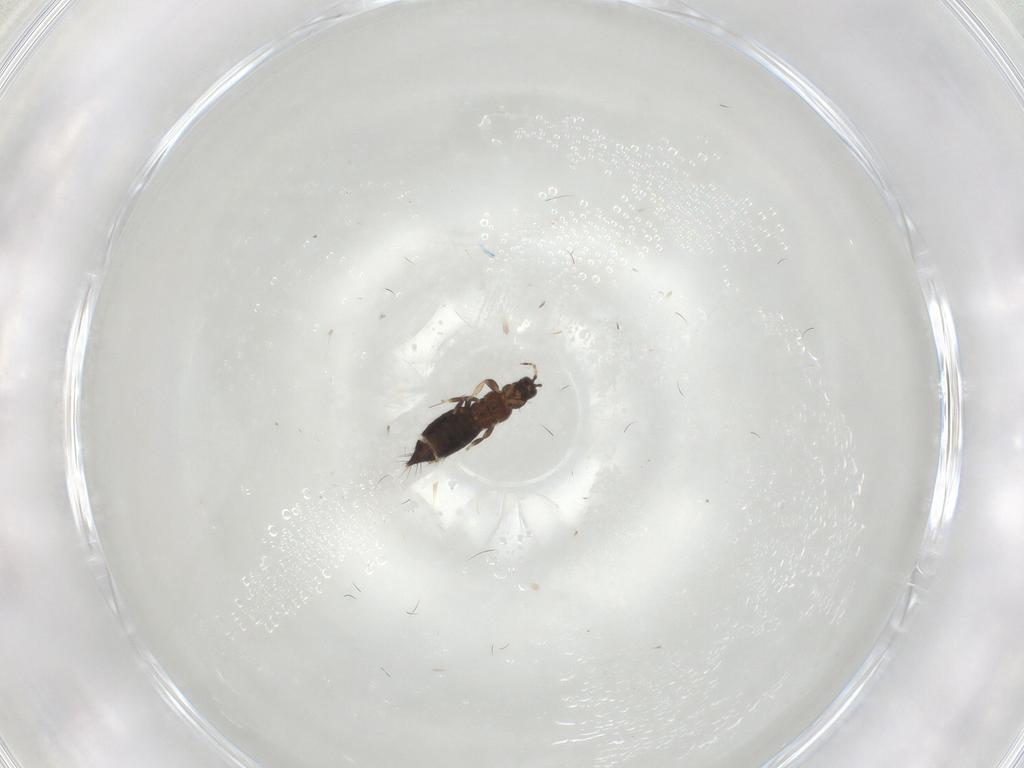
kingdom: Animalia
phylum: Arthropoda
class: Insecta
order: Thysanoptera
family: Thripidae
